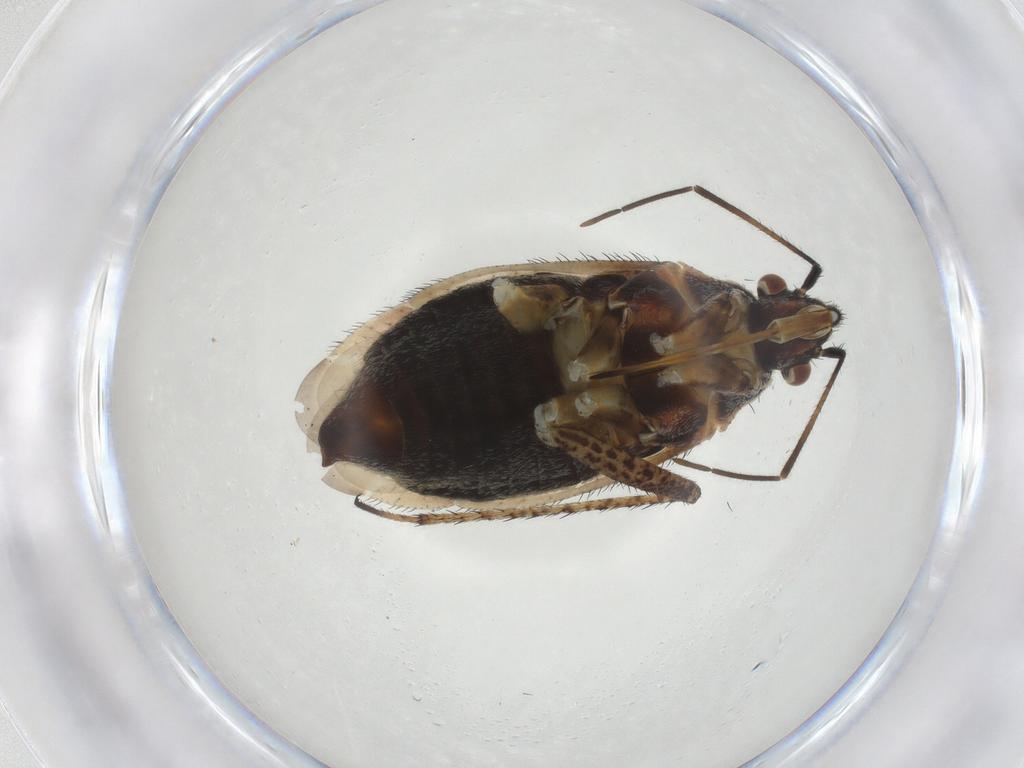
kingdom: Animalia
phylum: Arthropoda
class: Insecta
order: Hemiptera
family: Miridae
